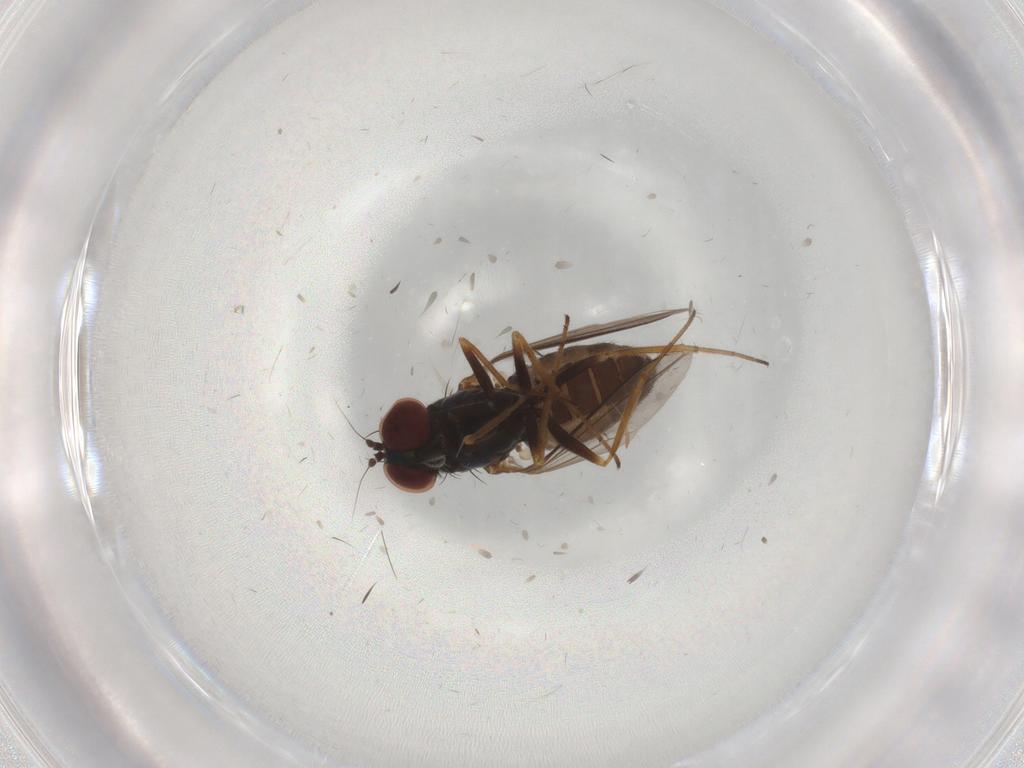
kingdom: Animalia
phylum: Arthropoda
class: Insecta
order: Diptera
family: Dolichopodidae
